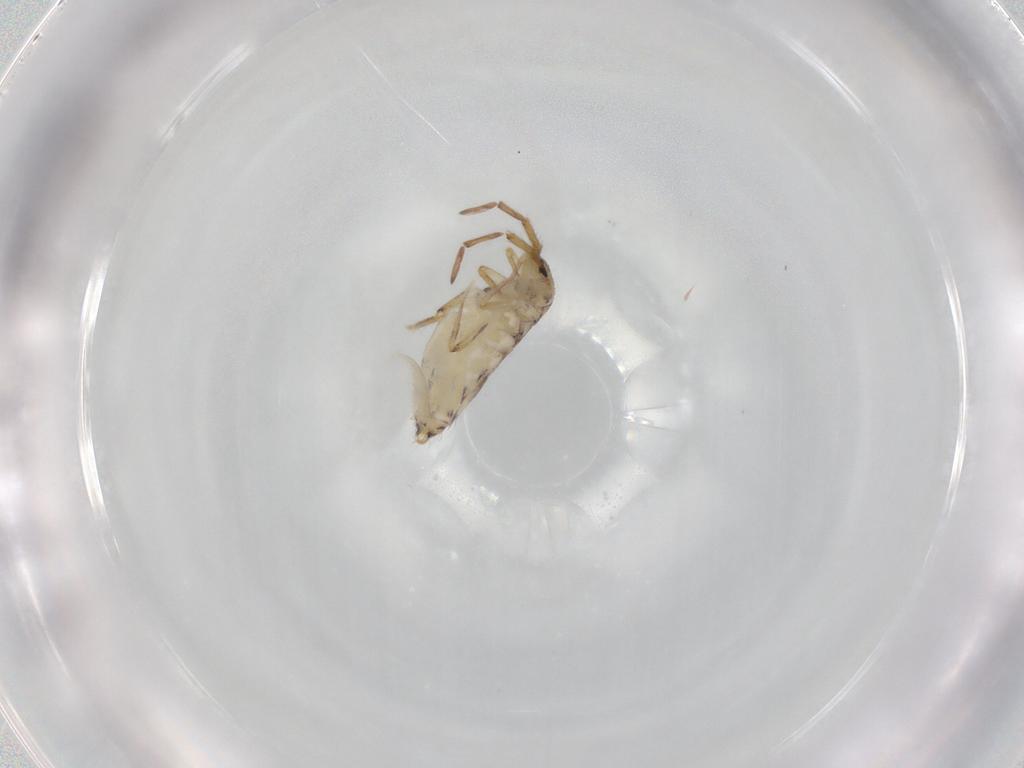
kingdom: Animalia
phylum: Arthropoda
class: Collembola
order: Entomobryomorpha
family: Entomobryidae
